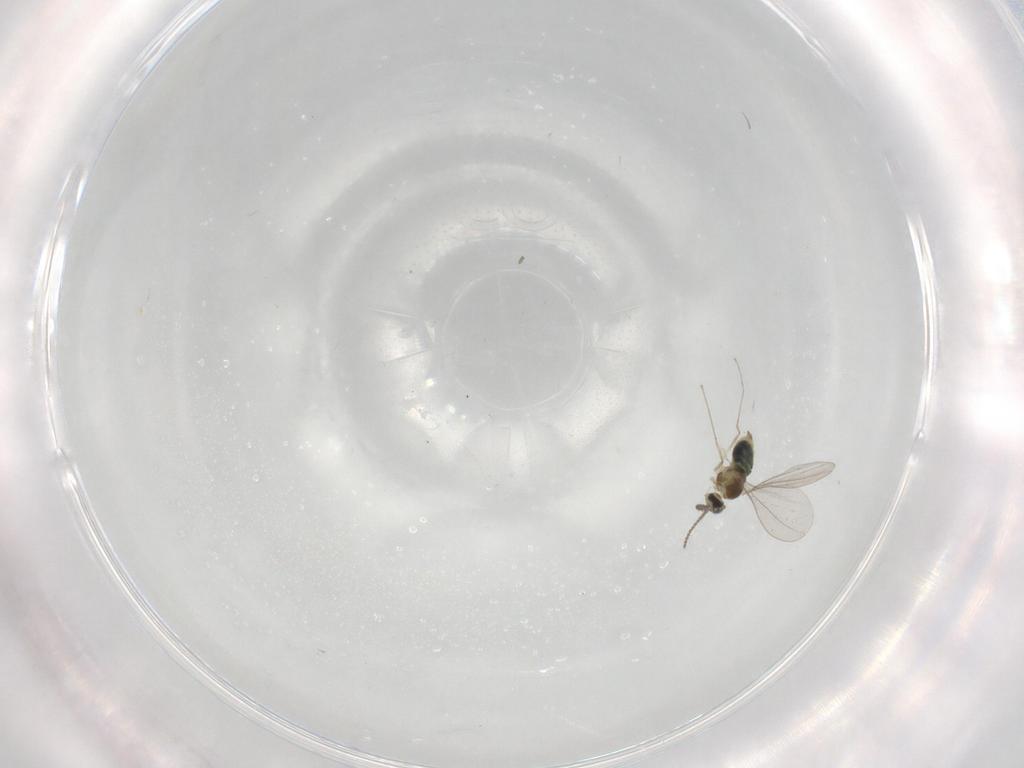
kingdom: Animalia
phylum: Arthropoda
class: Insecta
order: Diptera
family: Cecidomyiidae
